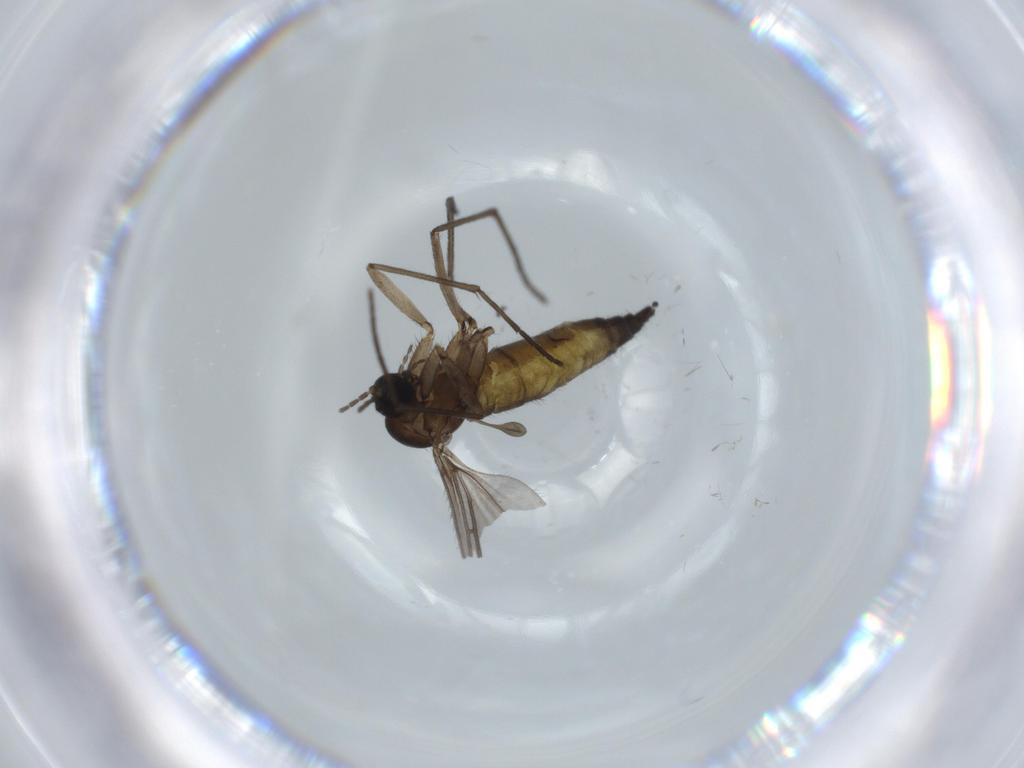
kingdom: Animalia
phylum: Arthropoda
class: Insecta
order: Diptera
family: Sciaridae
